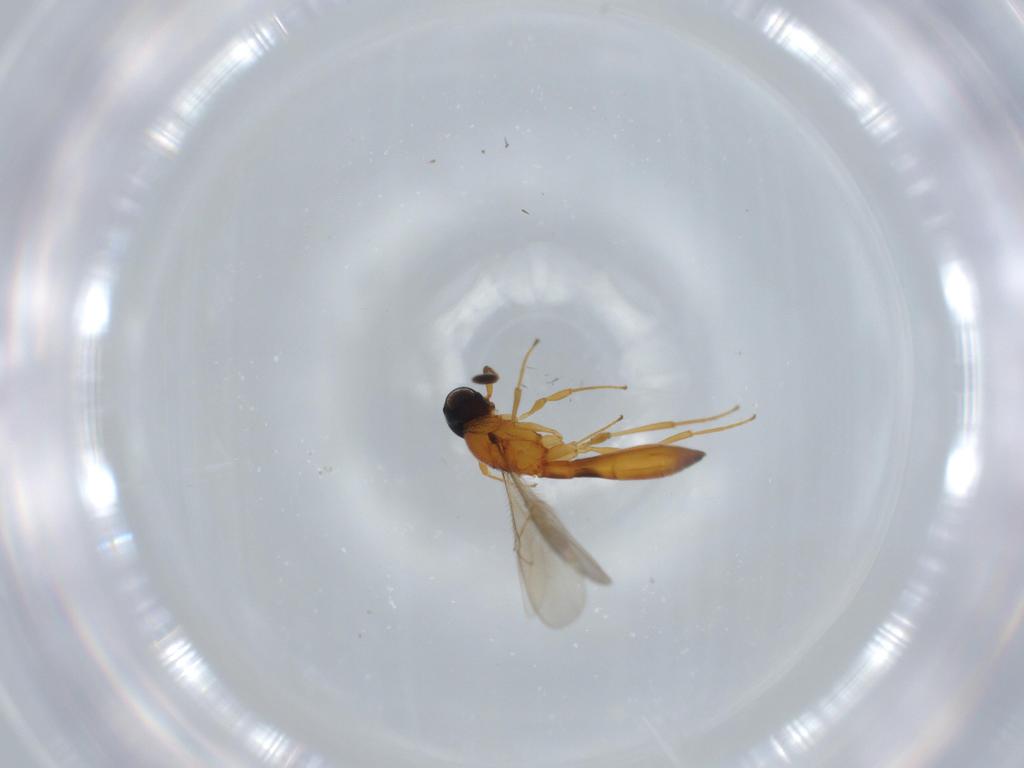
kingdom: Animalia
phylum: Arthropoda
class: Insecta
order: Hymenoptera
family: Scelionidae
